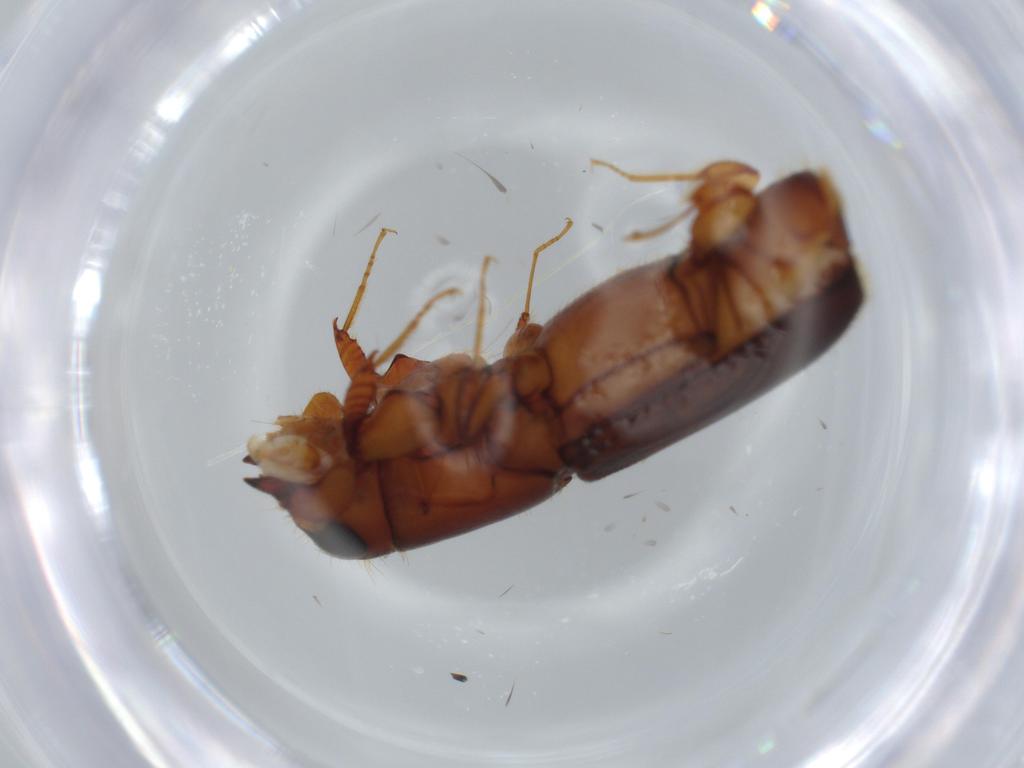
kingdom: Animalia
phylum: Arthropoda
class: Insecta
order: Coleoptera
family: Curculionidae
